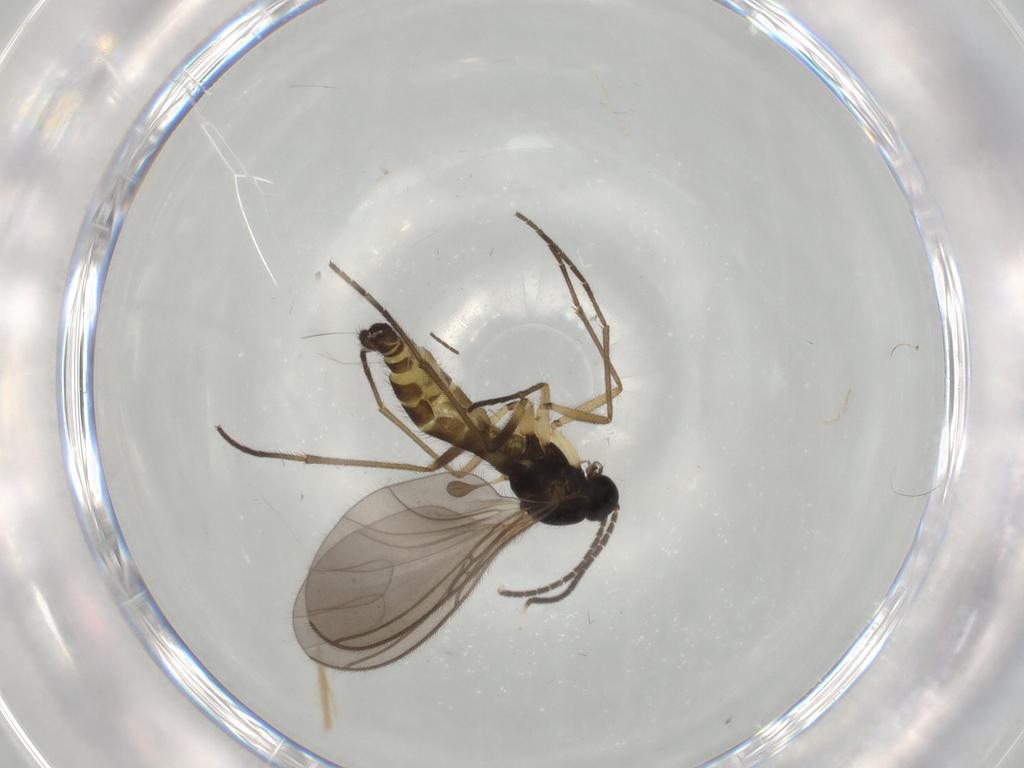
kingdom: Animalia
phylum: Arthropoda
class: Insecta
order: Diptera
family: Sciaridae
